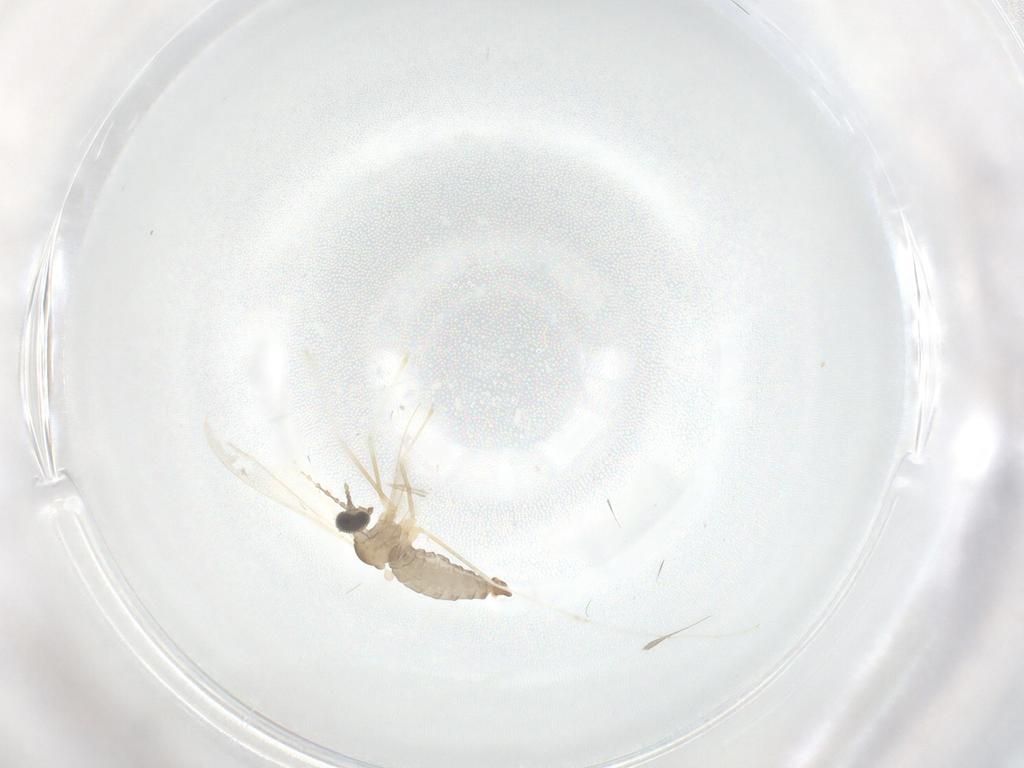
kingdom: Animalia
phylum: Arthropoda
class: Insecta
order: Diptera
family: Cecidomyiidae
